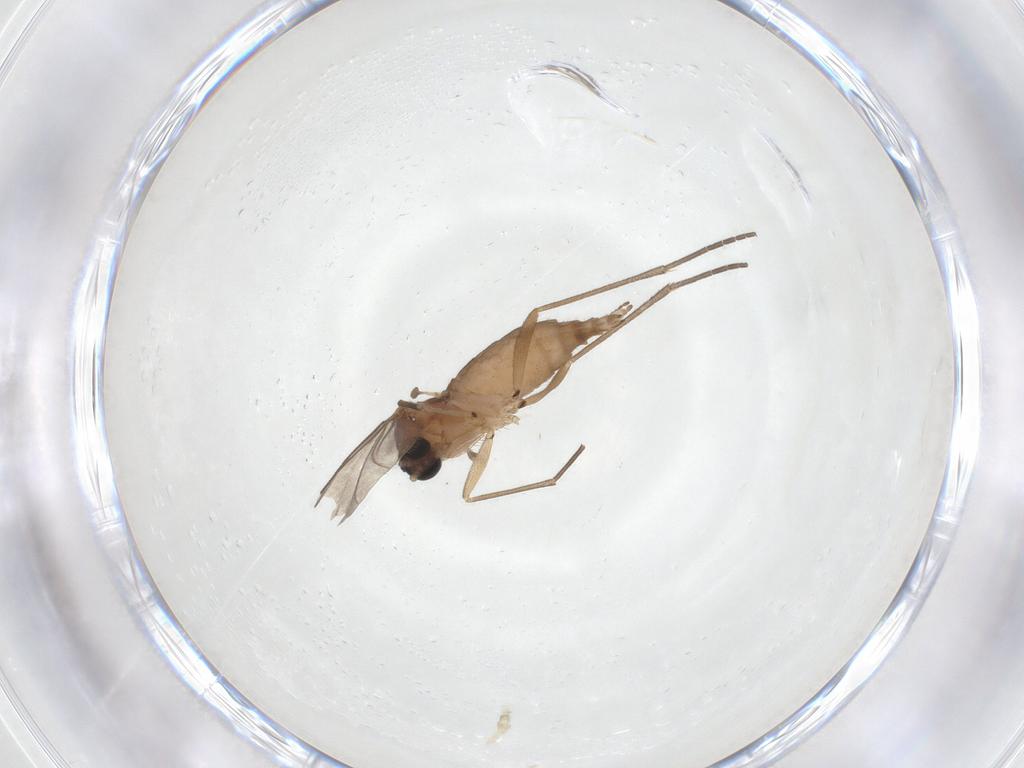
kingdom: Animalia
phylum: Arthropoda
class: Insecta
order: Diptera
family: Sciaridae
